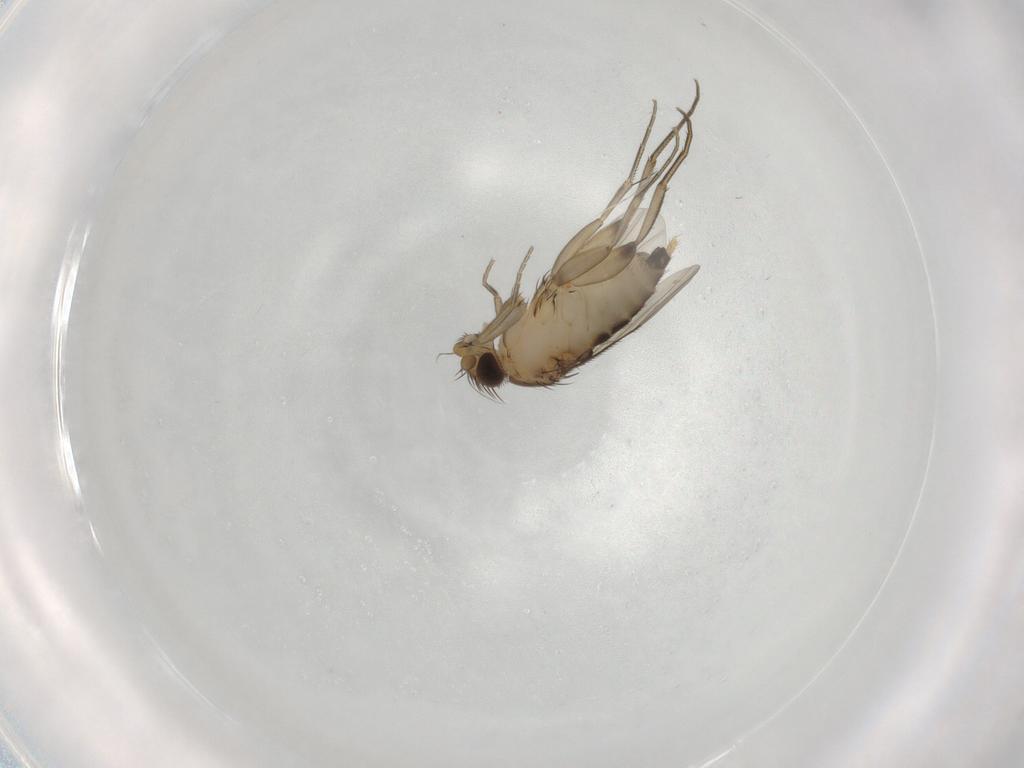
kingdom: Animalia
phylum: Arthropoda
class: Insecta
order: Diptera
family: Phoridae
